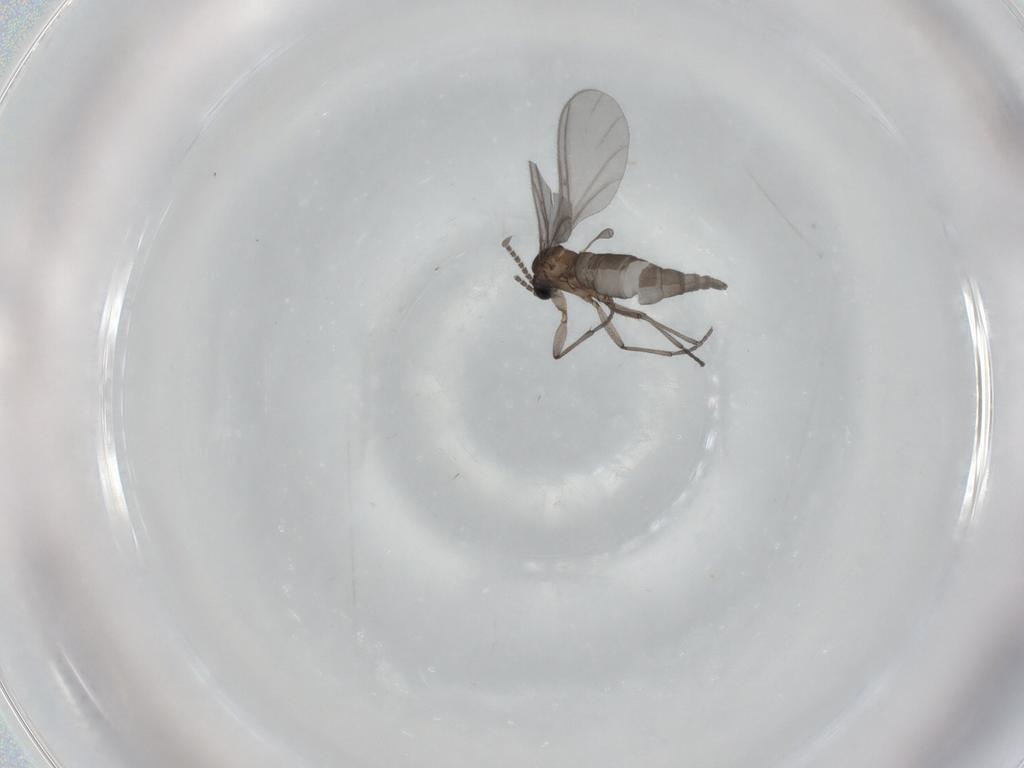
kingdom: Animalia
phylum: Arthropoda
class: Insecta
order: Diptera
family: Sciaridae
